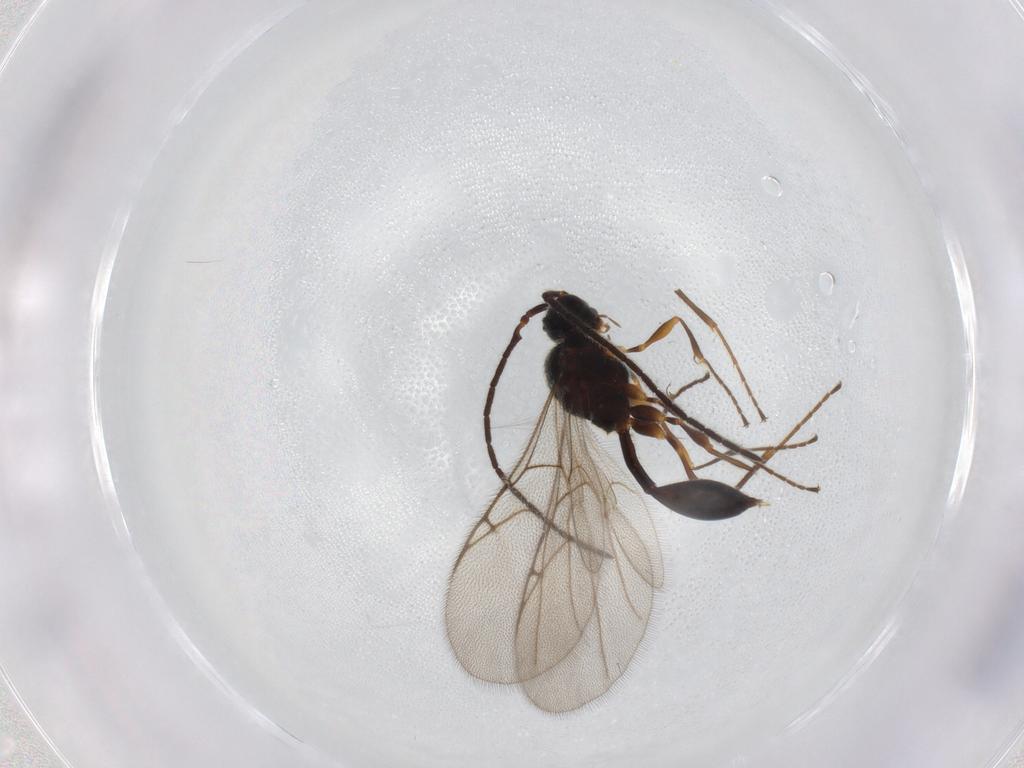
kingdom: Animalia
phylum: Arthropoda
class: Insecta
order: Hymenoptera
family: Diapriidae
